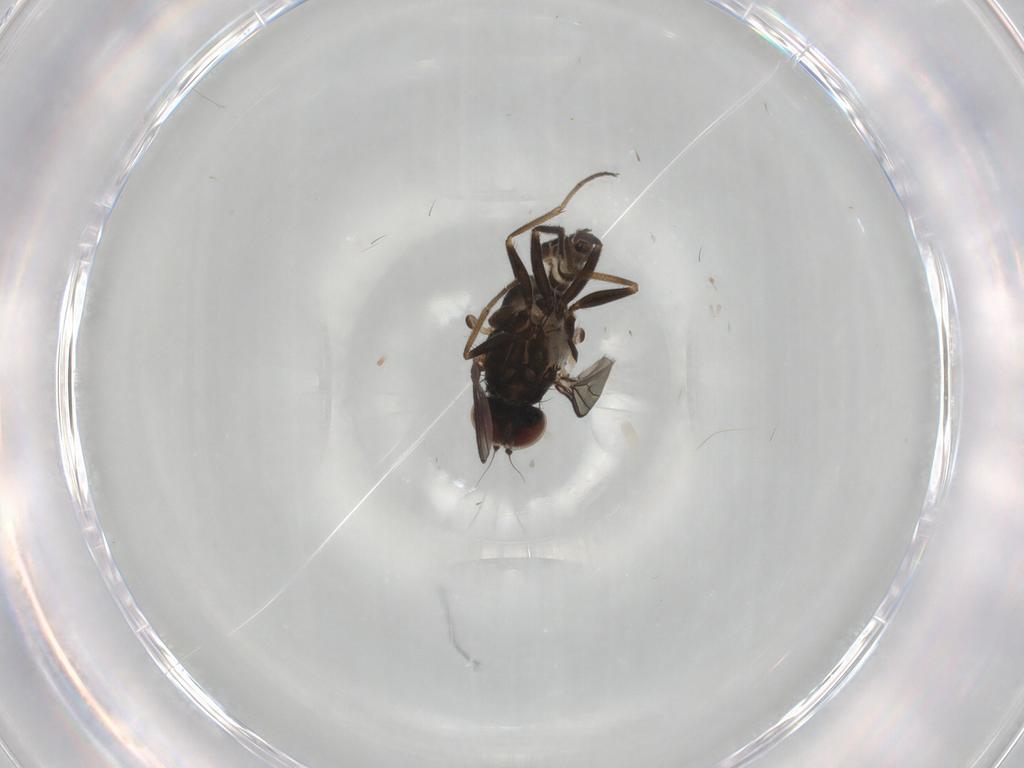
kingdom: Animalia
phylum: Arthropoda
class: Insecta
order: Diptera
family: Dolichopodidae
